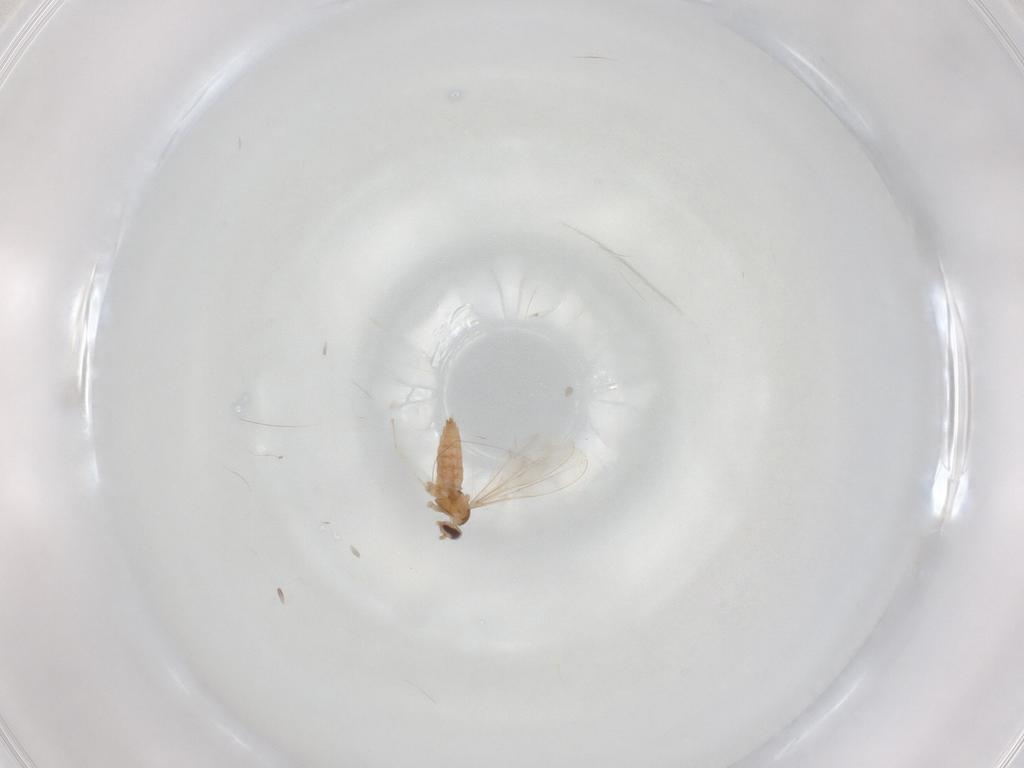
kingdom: Animalia
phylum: Arthropoda
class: Insecta
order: Diptera
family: Cecidomyiidae
